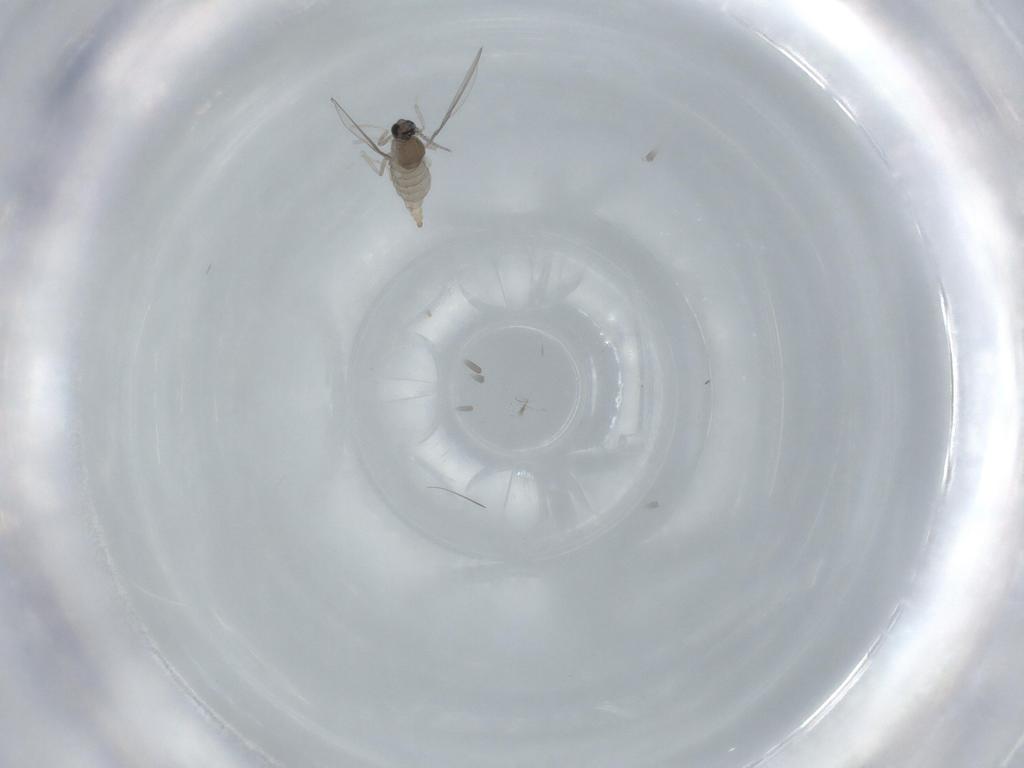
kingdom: Animalia
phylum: Arthropoda
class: Insecta
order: Diptera
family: Cecidomyiidae
